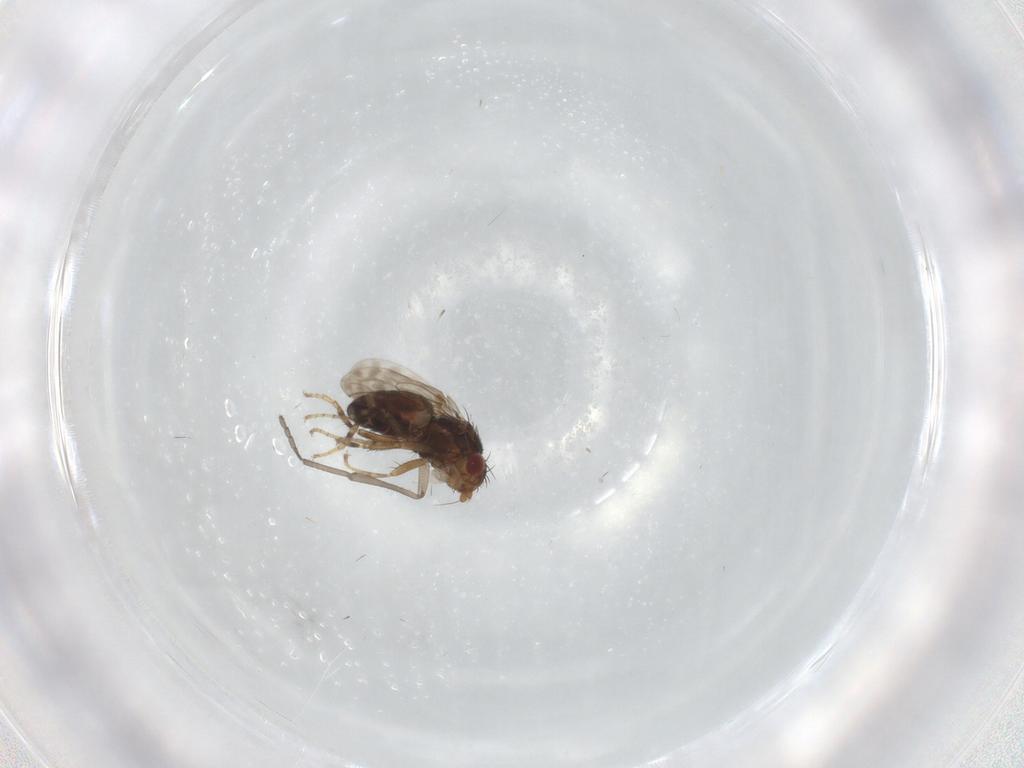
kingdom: Animalia
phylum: Arthropoda
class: Insecta
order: Diptera
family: Sphaeroceridae
